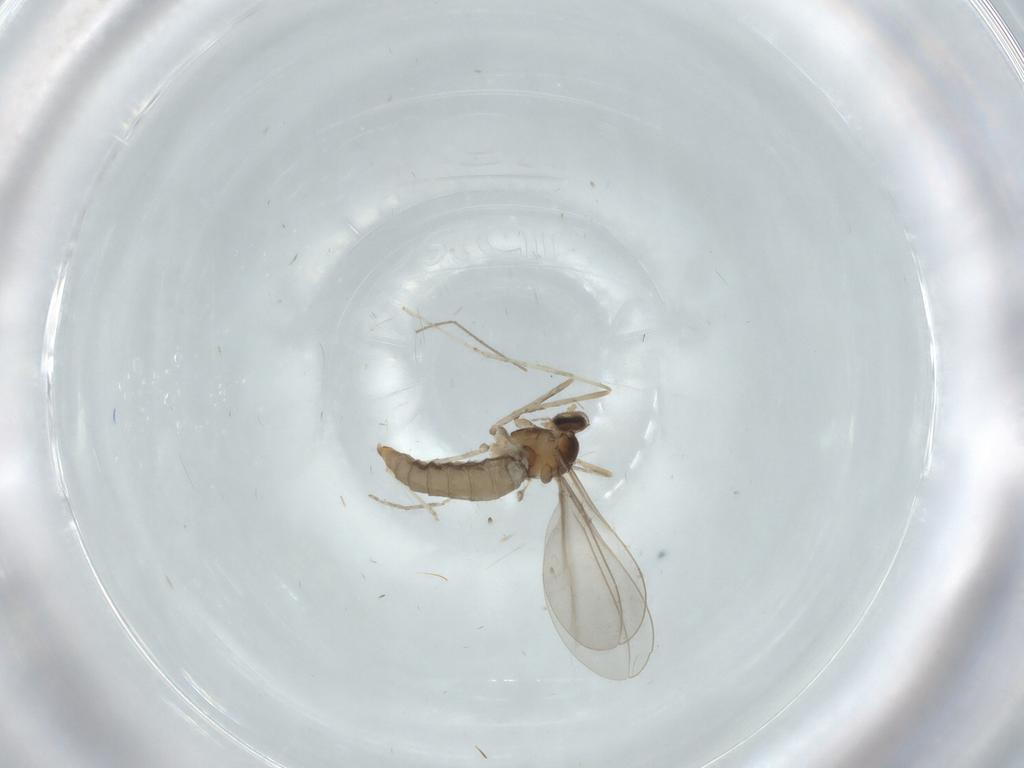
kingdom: Animalia
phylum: Arthropoda
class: Insecta
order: Diptera
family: Cecidomyiidae
